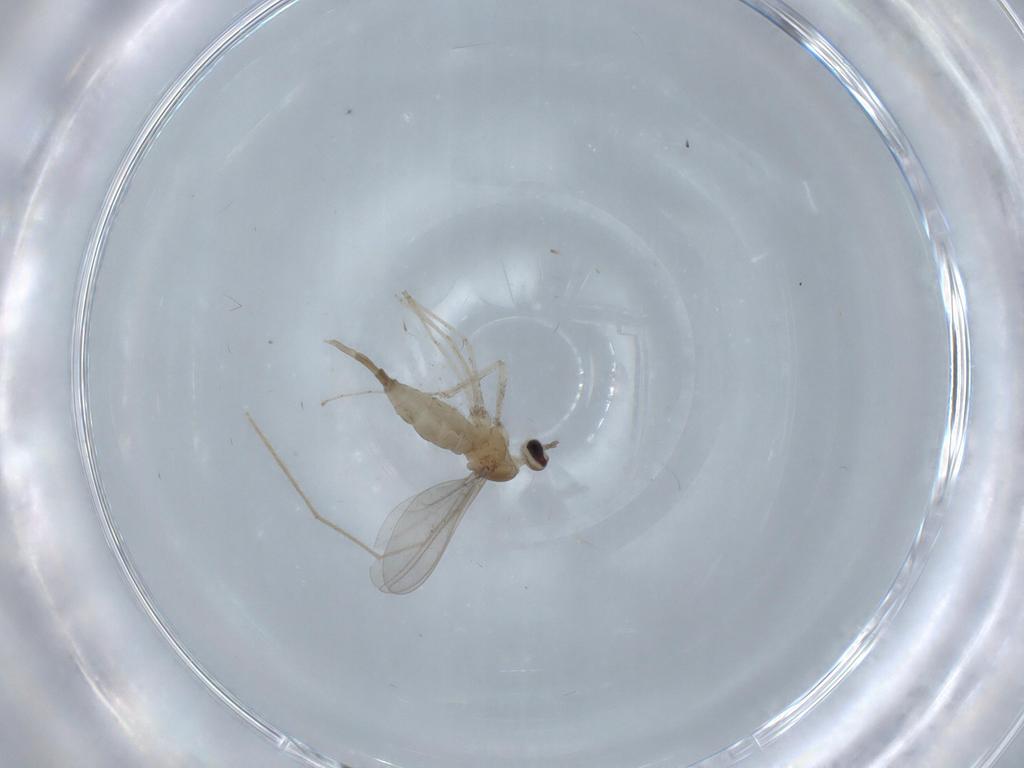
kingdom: Animalia
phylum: Arthropoda
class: Insecta
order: Diptera
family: Cecidomyiidae
